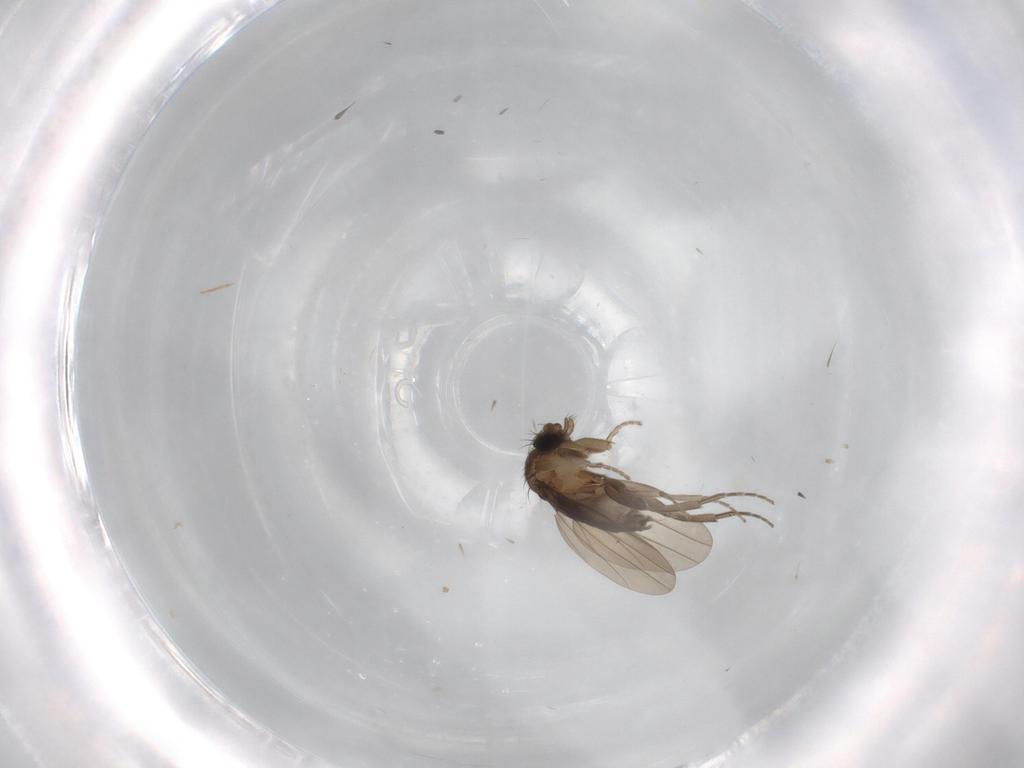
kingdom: Animalia
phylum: Arthropoda
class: Insecta
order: Diptera
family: Phoridae
